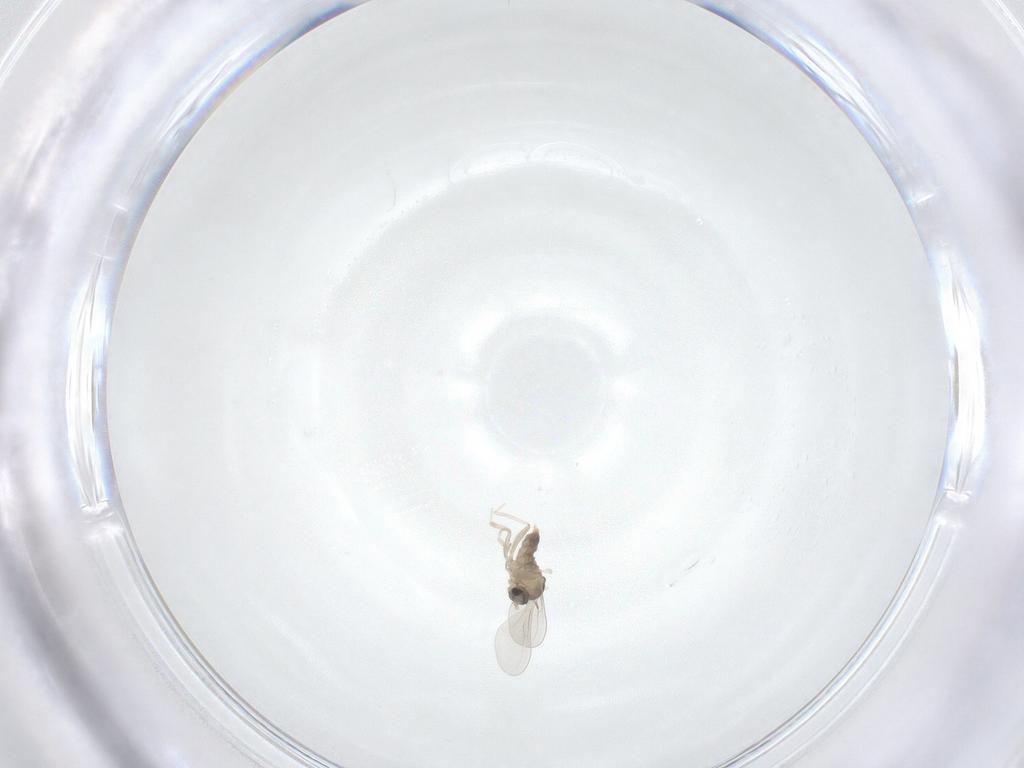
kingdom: Animalia
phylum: Arthropoda
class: Insecta
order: Diptera
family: Cecidomyiidae
